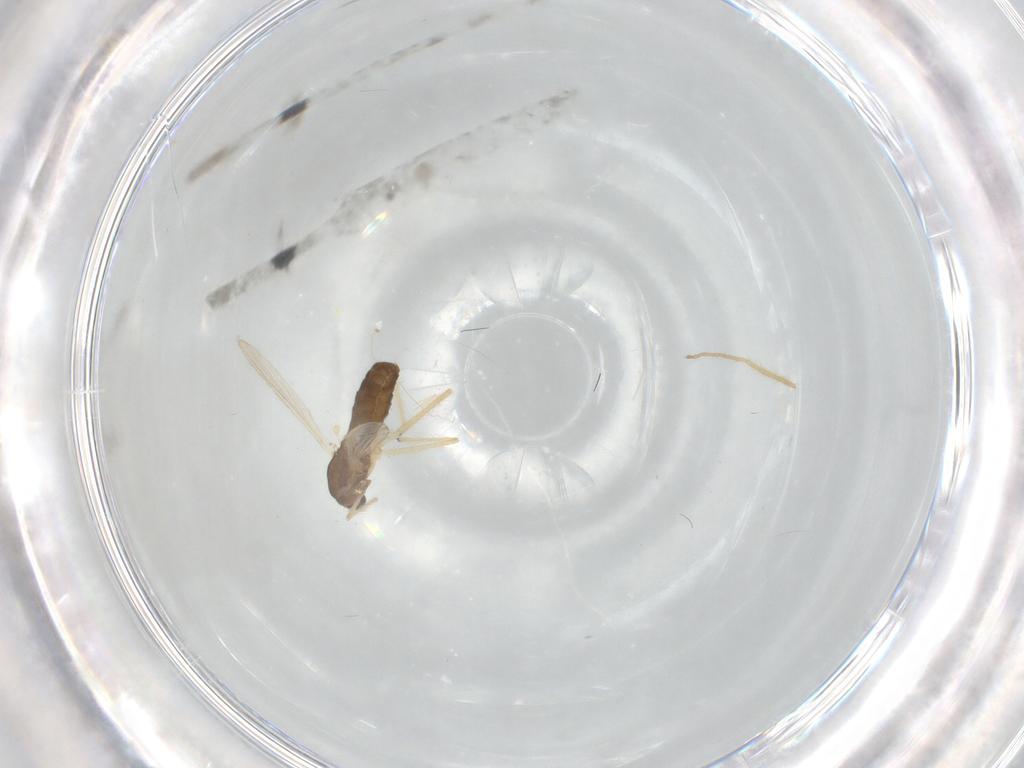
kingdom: Animalia
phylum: Arthropoda
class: Insecta
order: Diptera
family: Chironomidae
